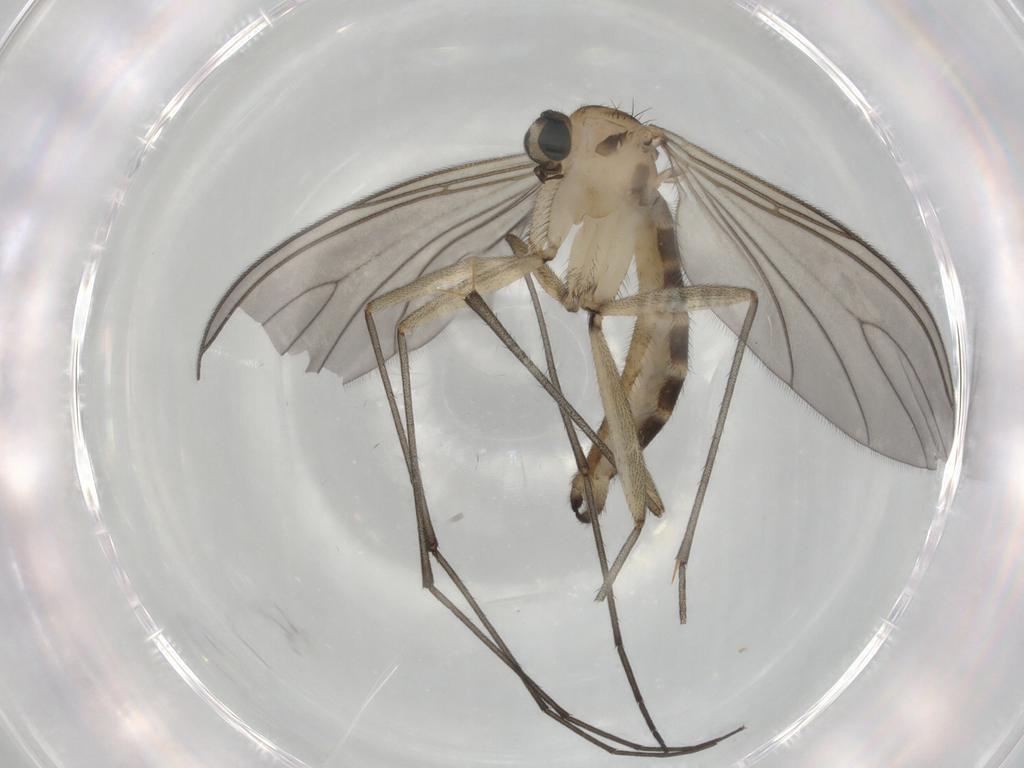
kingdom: Animalia
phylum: Arthropoda
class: Insecta
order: Diptera
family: Sciaridae
